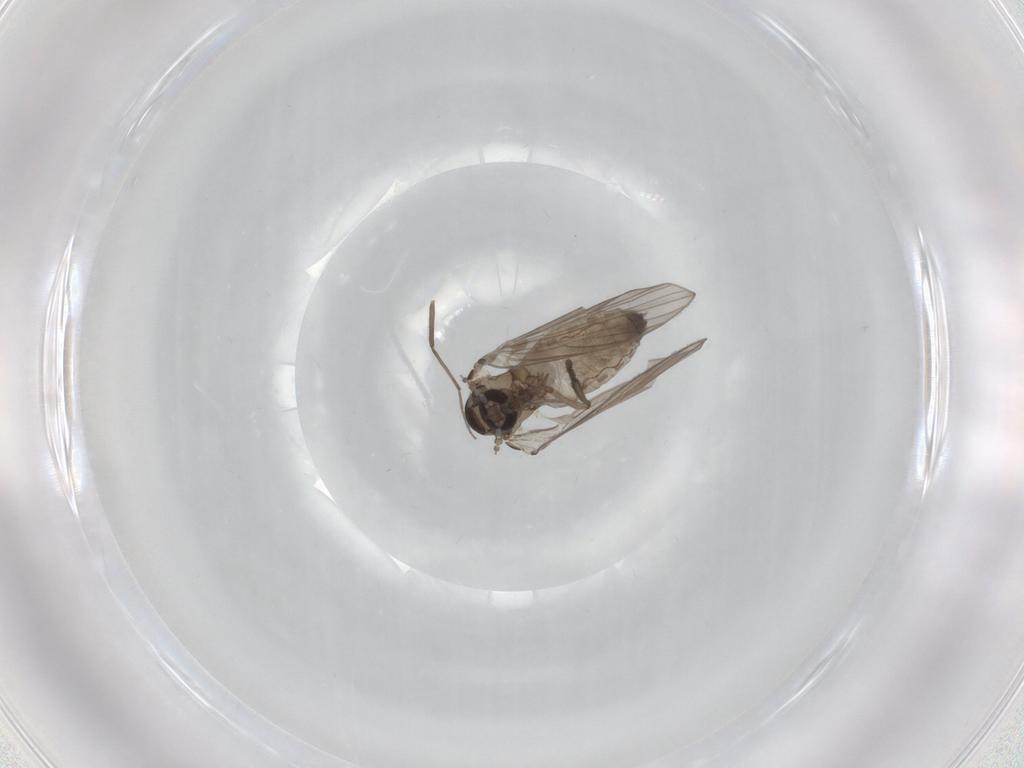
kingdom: Animalia
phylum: Arthropoda
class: Insecta
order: Diptera
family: Psychodidae
